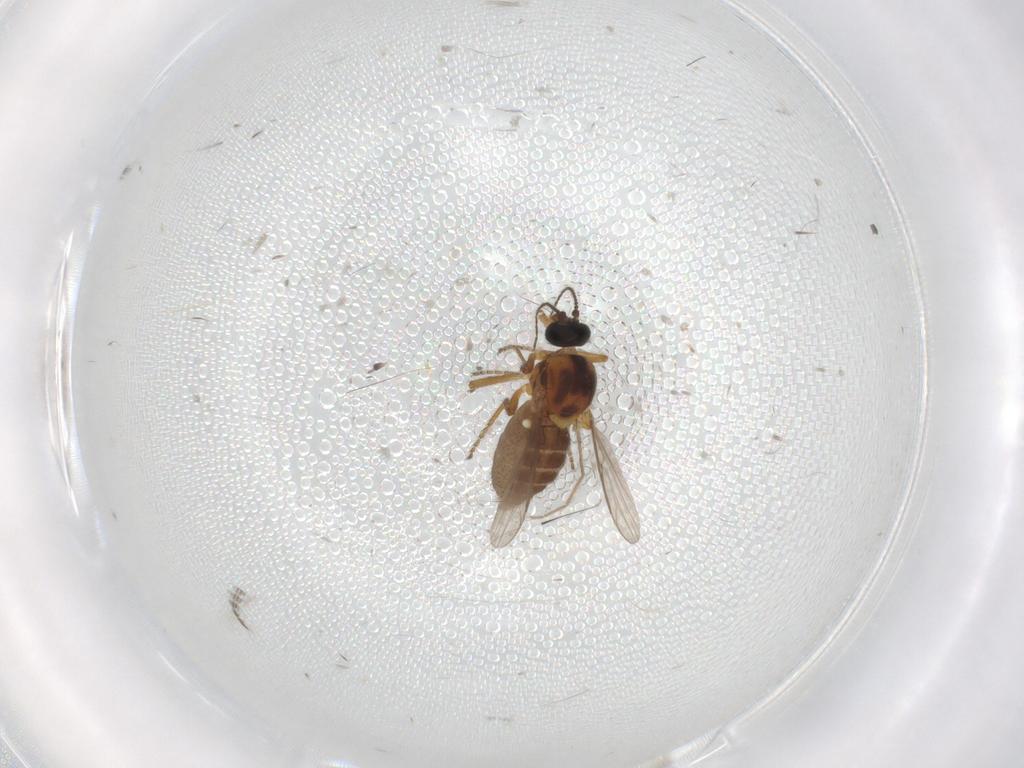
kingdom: Animalia
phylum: Arthropoda
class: Insecta
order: Diptera
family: Ceratopogonidae
